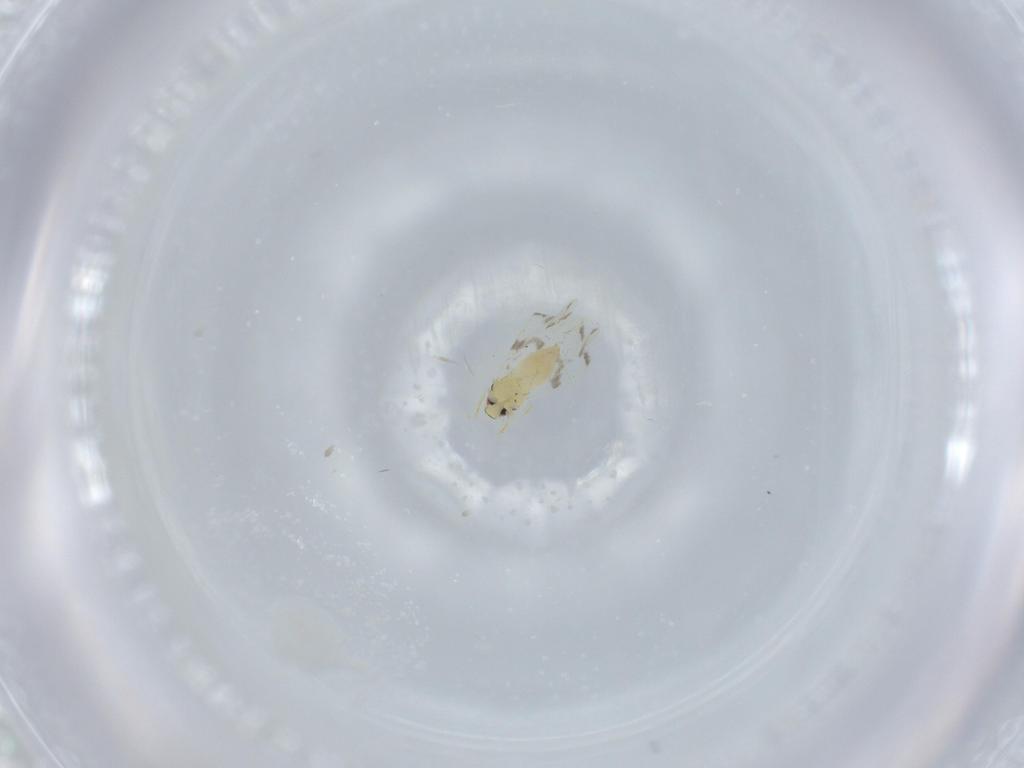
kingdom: Animalia
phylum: Arthropoda
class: Insecta
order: Hemiptera
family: Aleyrodidae
